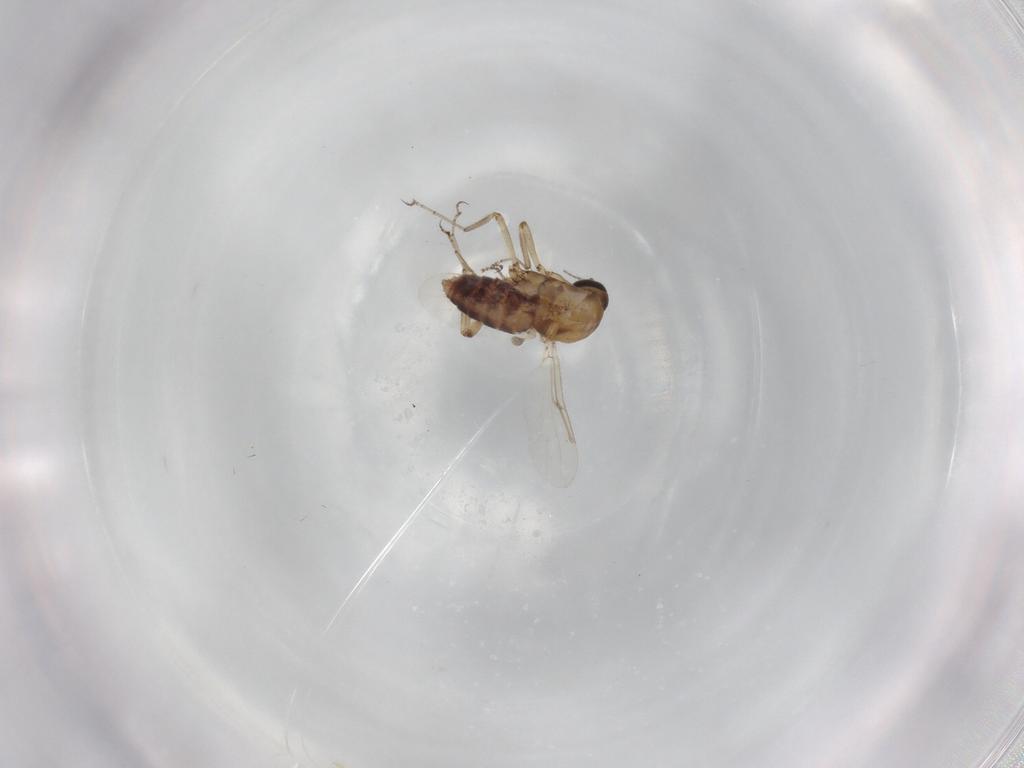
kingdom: Animalia
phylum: Arthropoda
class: Insecta
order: Diptera
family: Ceratopogonidae
